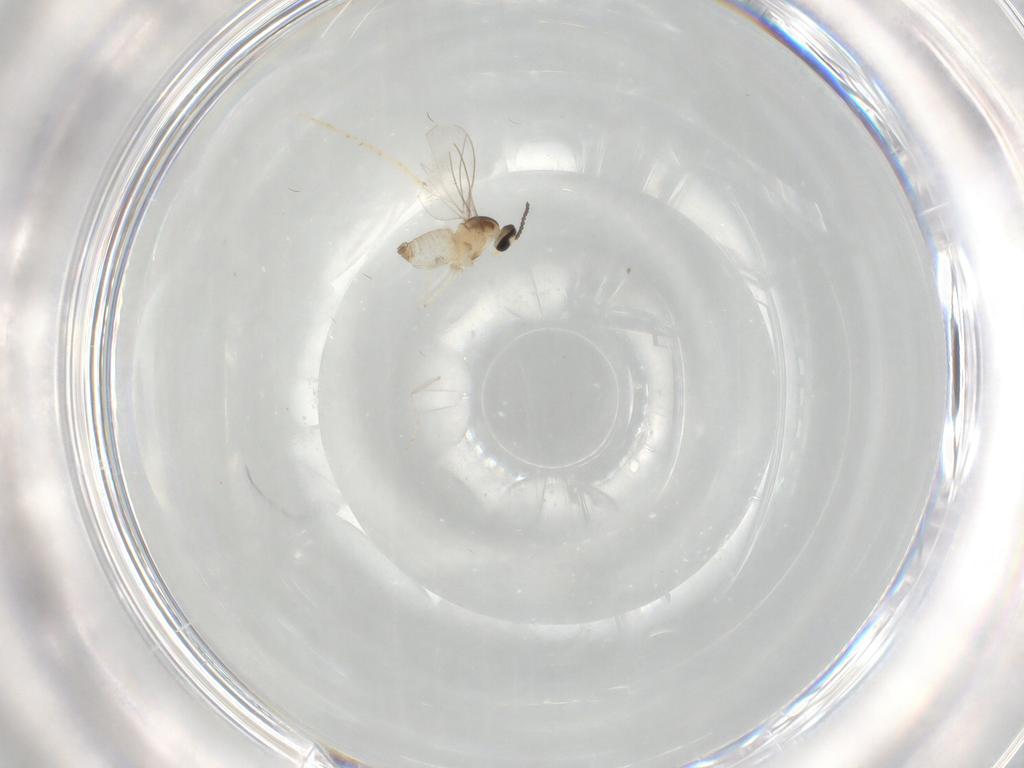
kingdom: Animalia
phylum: Arthropoda
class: Insecta
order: Diptera
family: Cecidomyiidae
